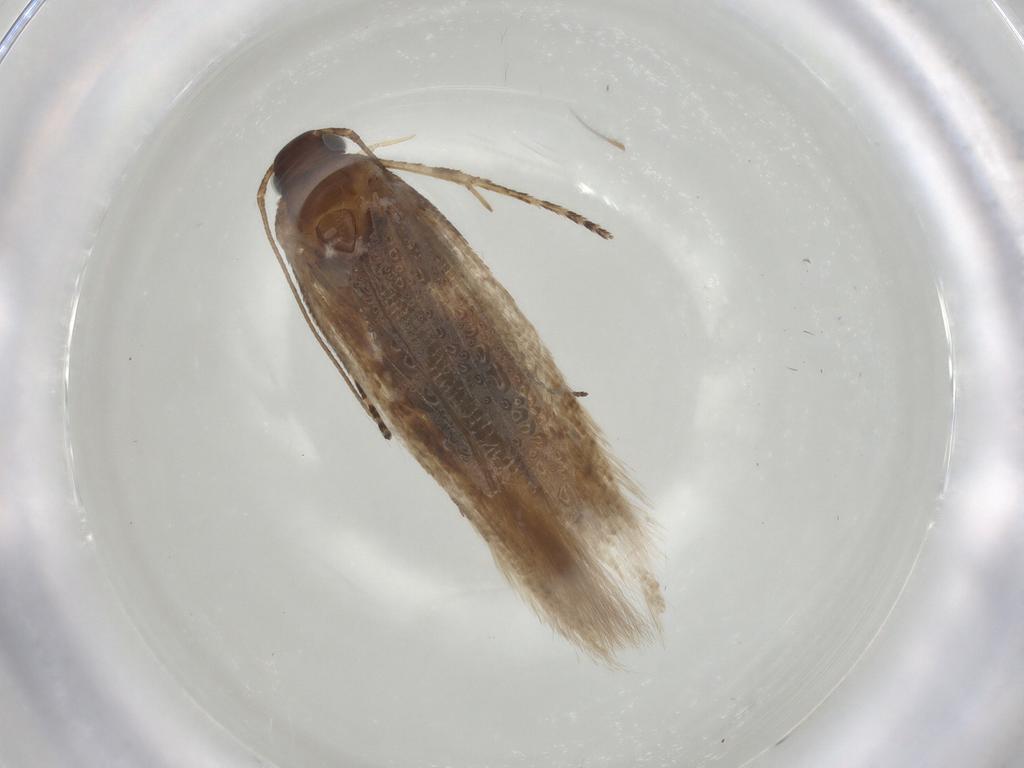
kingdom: Animalia
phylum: Arthropoda
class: Insecta
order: Lepidoptera
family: Gelechiidae
